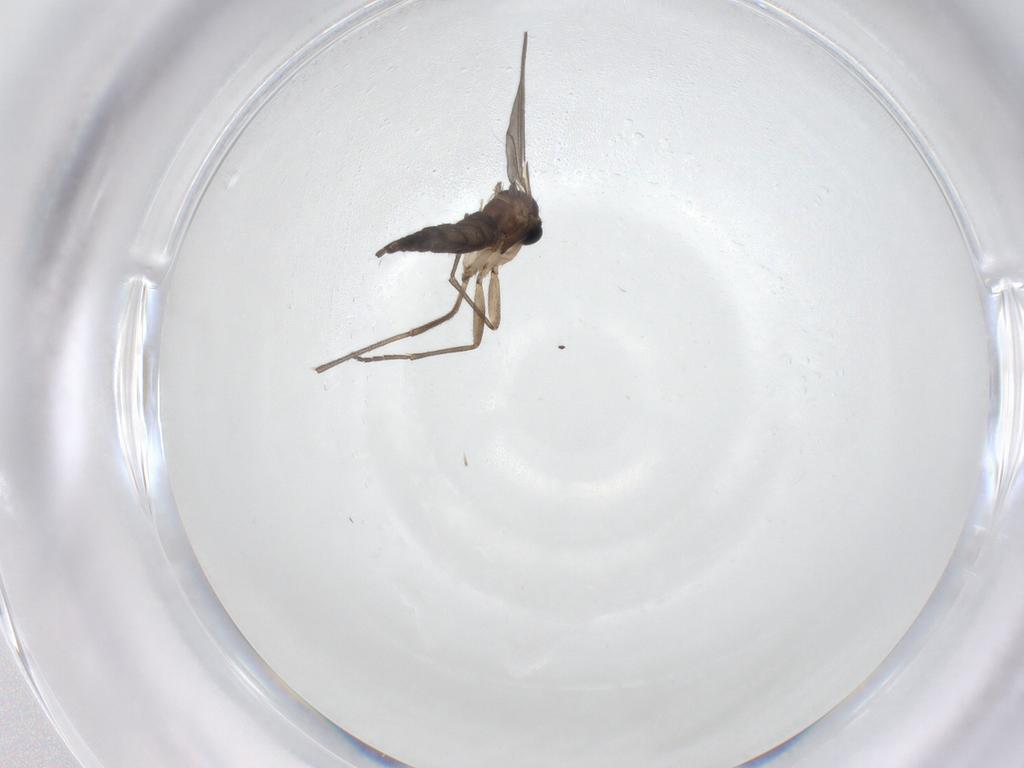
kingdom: Animalia
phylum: Arthropoda
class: Insecta
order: Diptera
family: Sciaridae
